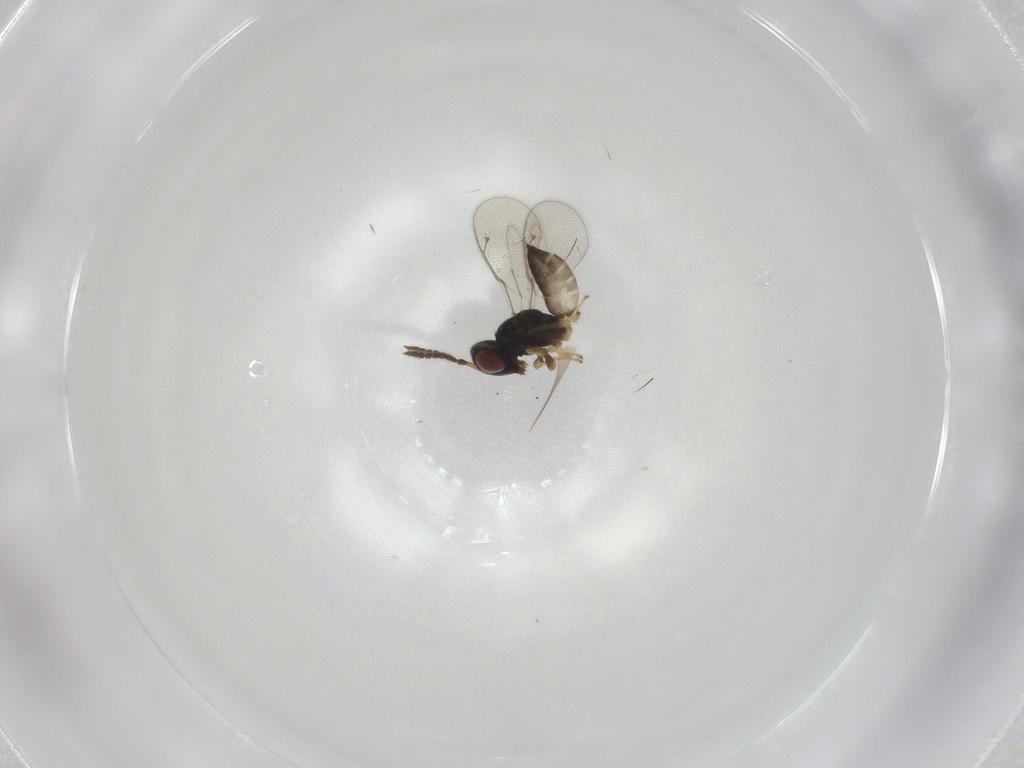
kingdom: Animalia
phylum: Arthropoda
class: Insecta
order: Hymenoptera
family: Pteromalidae
